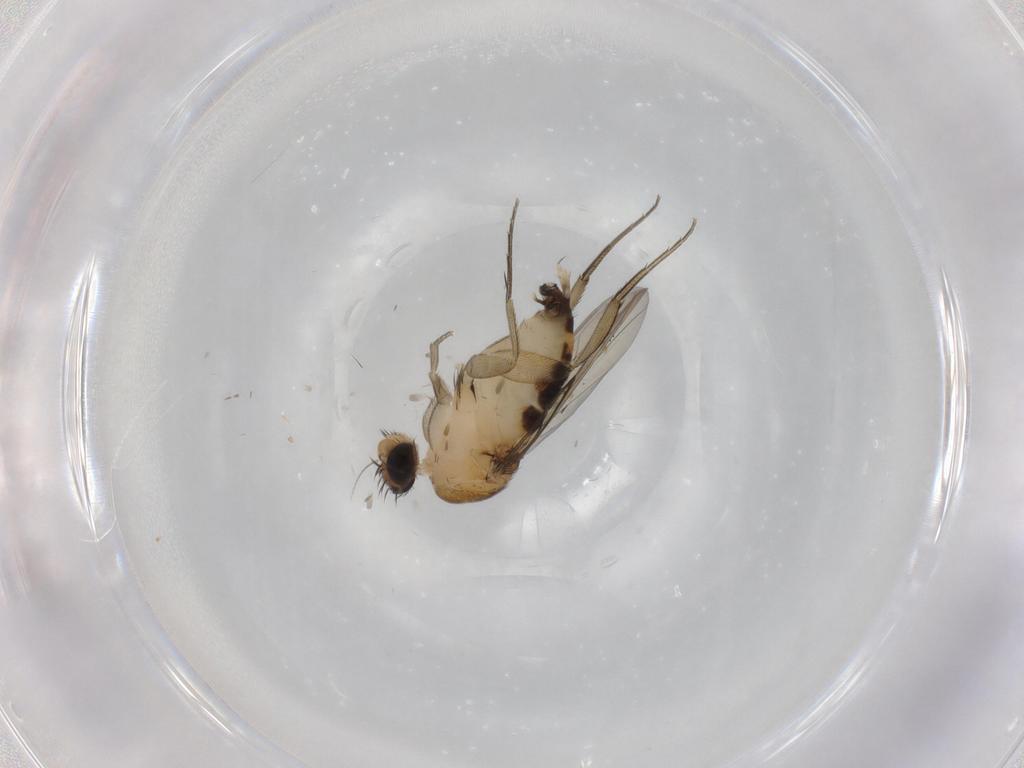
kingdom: Animalia
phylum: Arthropoda
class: Insecta
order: Diptera
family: Phoridae
